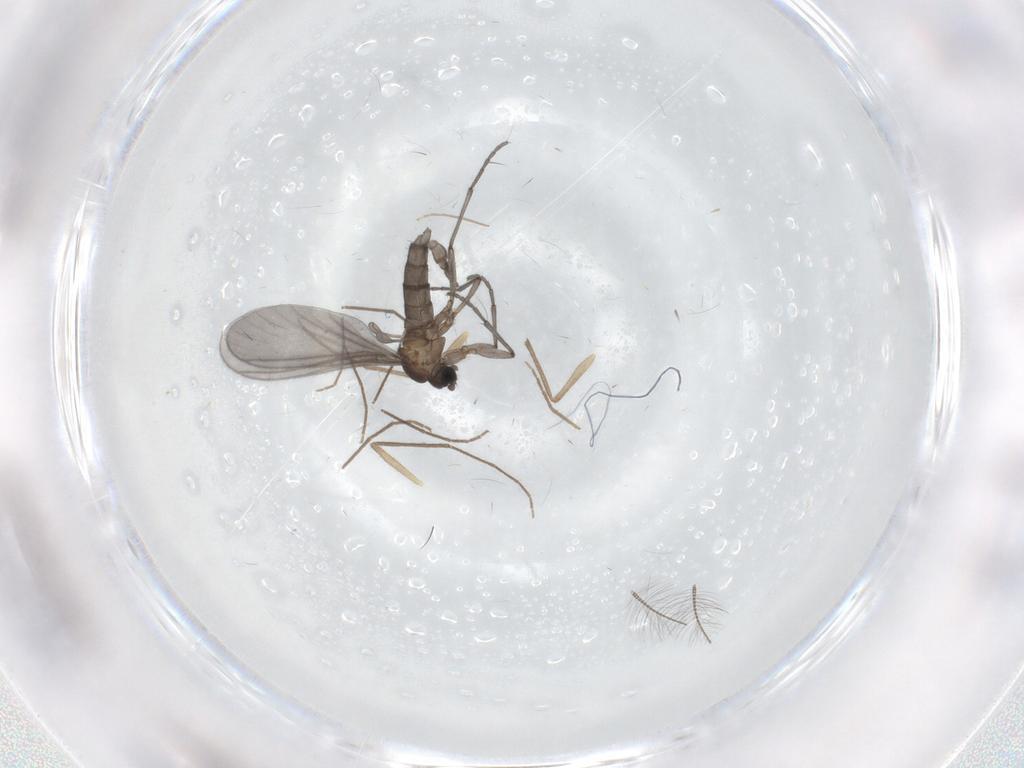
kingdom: Animalia
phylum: Arthropoda
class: Insecta
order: Diptera
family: Sciaridae
